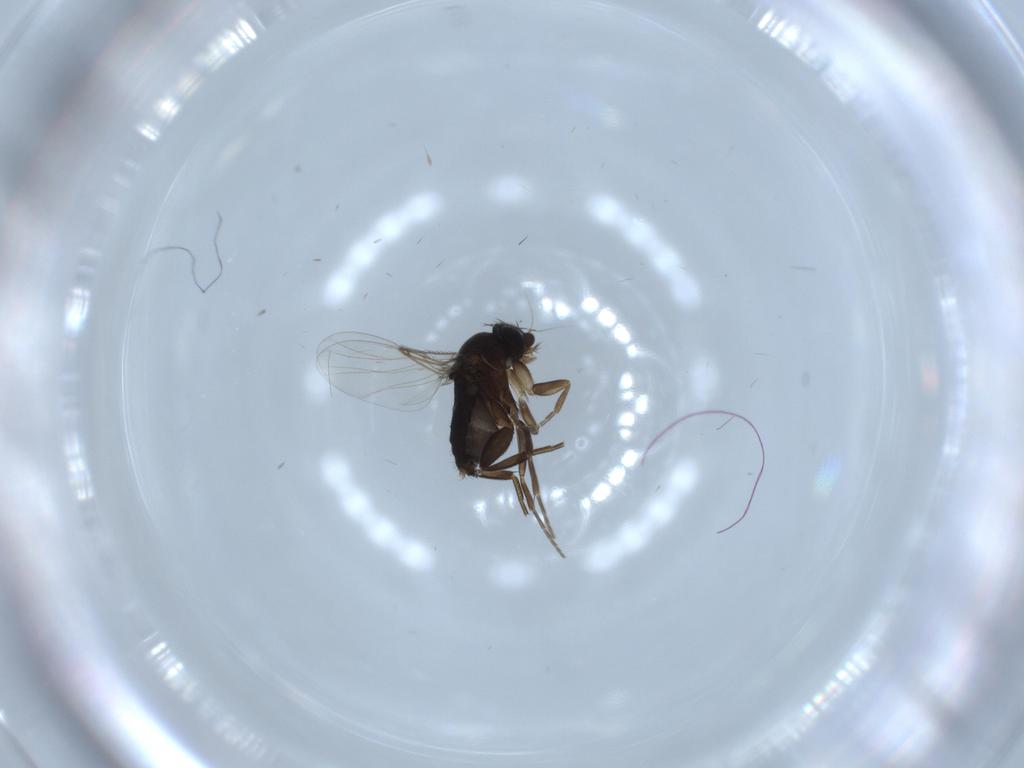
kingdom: Animalia
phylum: Arthropoda
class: Insecta
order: Diptera
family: Phoridae
